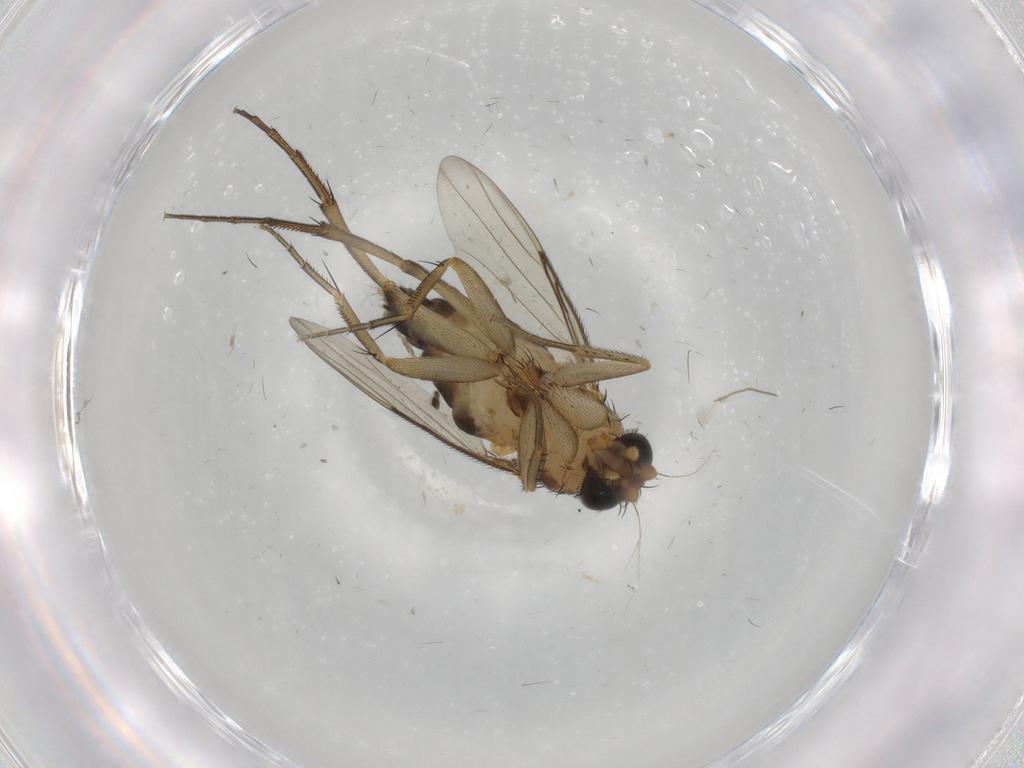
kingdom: Animalia
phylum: Arthropoda
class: Insecta
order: Diptera
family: Ceratopogonidae
